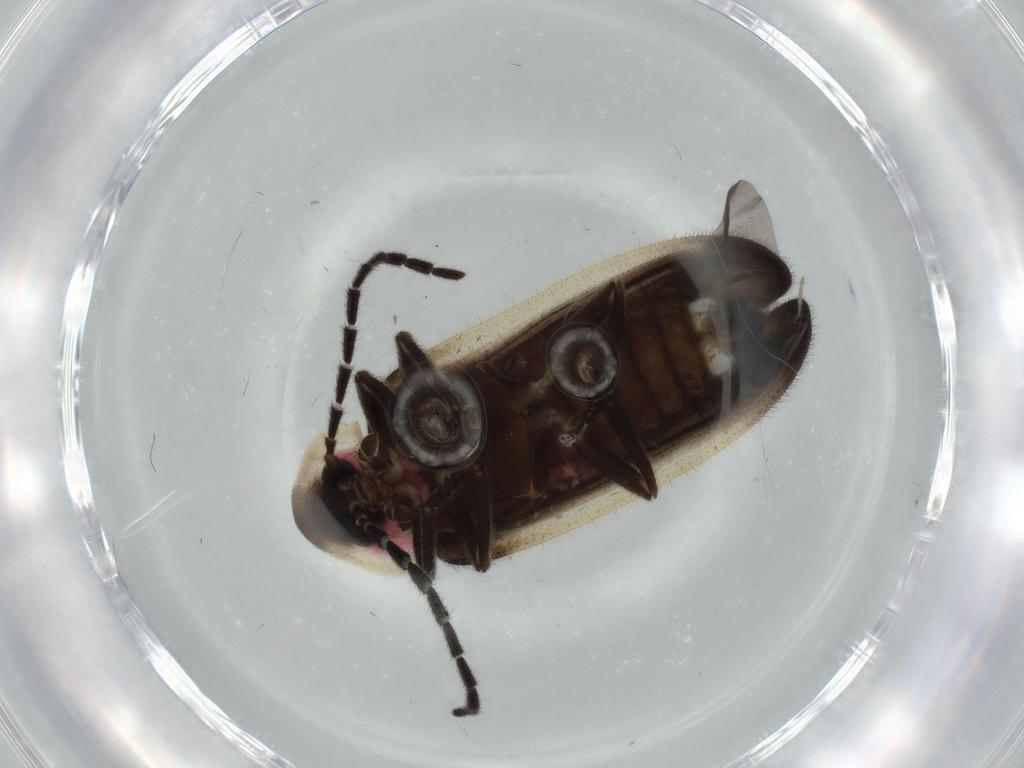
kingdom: Animalia
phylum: Arthropoda
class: Insecta
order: Coleoptera
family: Lampyridae
